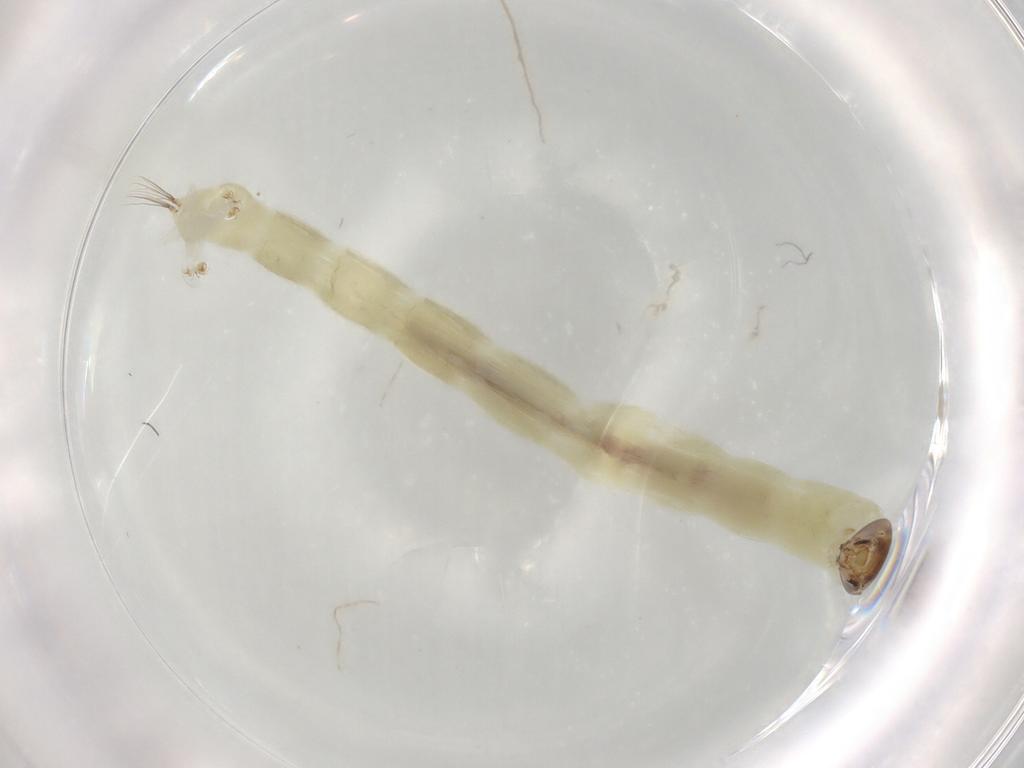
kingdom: Animalia
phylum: Arthropoda
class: Insecta
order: Diptera
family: Chironomidae
